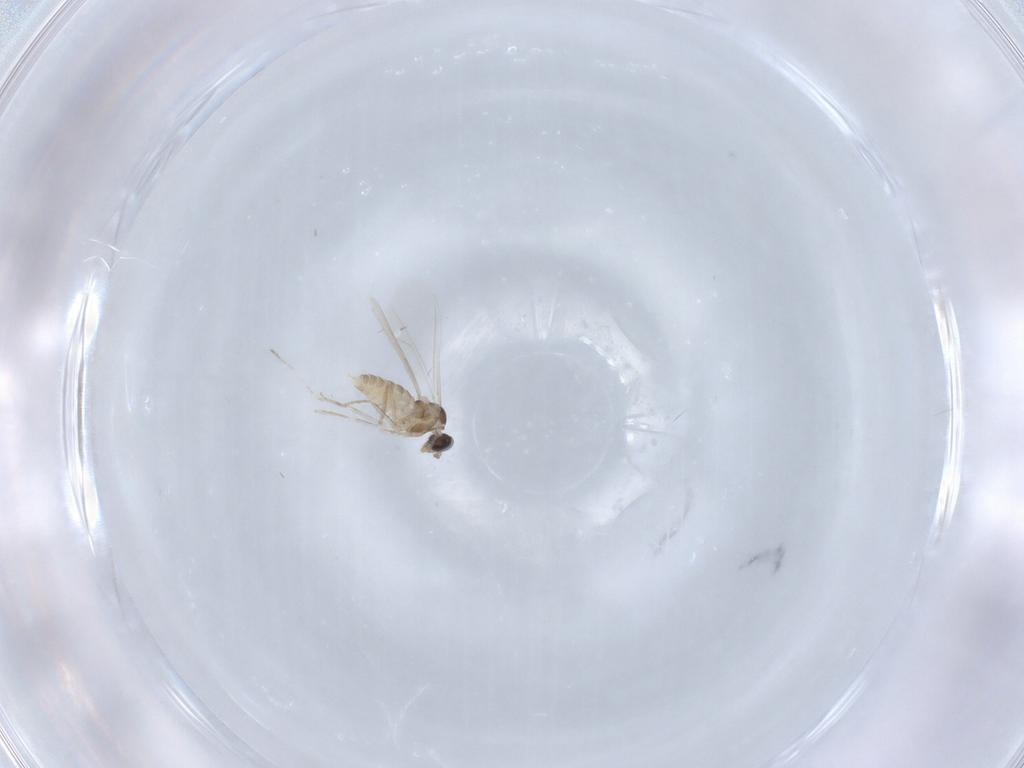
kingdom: Animalia
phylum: Arthropoda
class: Insecta
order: Diptera
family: Cecidomyiidae
